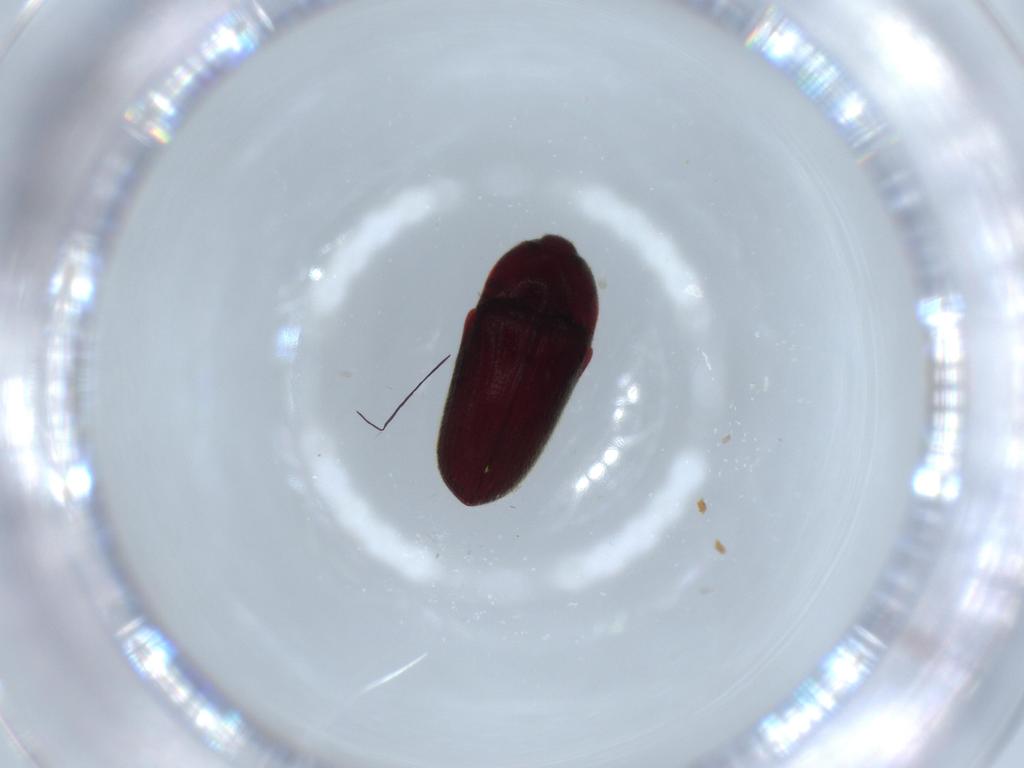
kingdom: Animalia
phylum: Arthropoda
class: Insecta
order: Coleoptera
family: Throscidae
